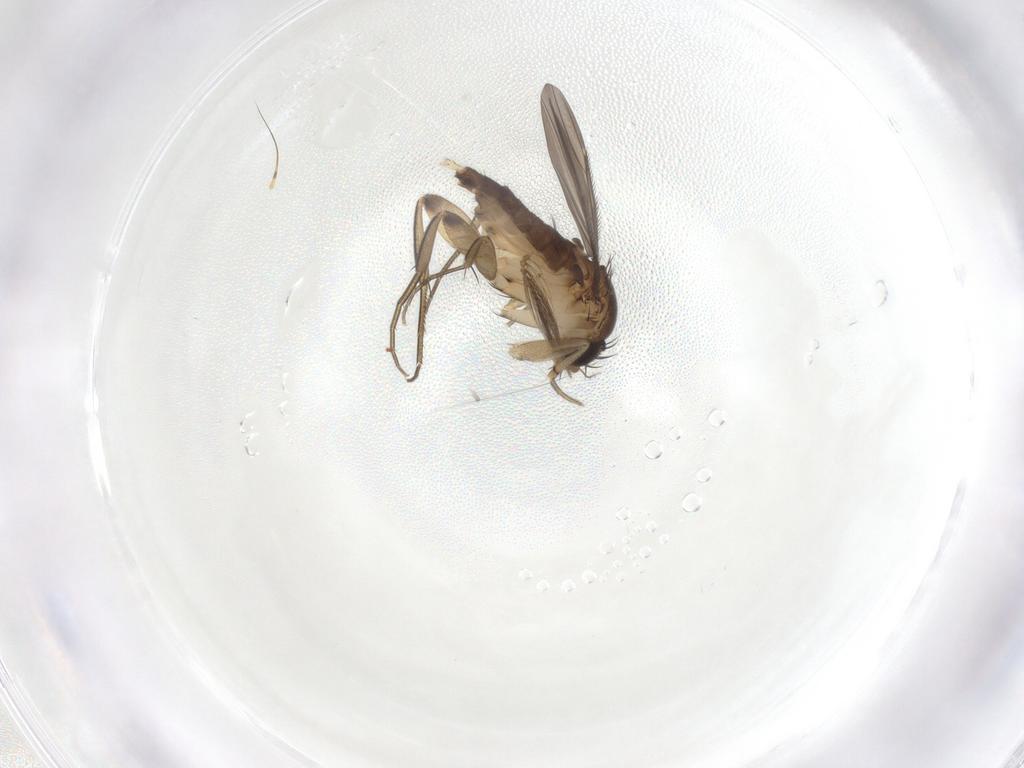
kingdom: Animalia
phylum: Arthropoda
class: Insecta
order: Diptera
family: Phoridae
